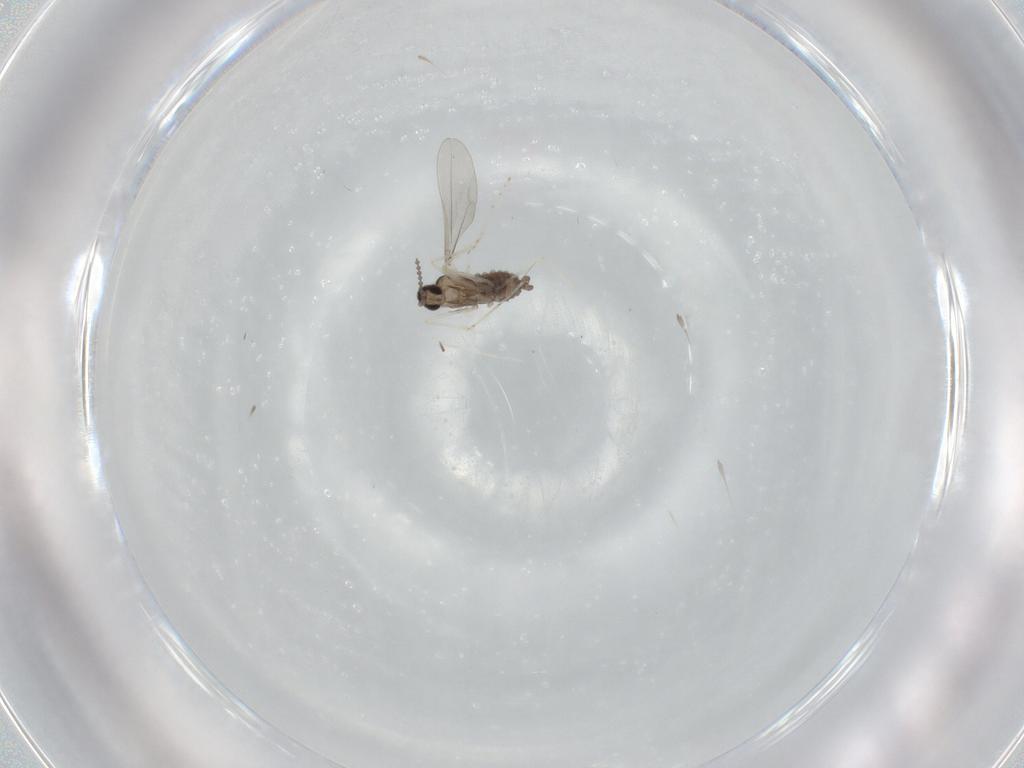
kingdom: Animalia
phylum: Arthropoda
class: Insecta
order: Diptera
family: Cecidomyiidae
